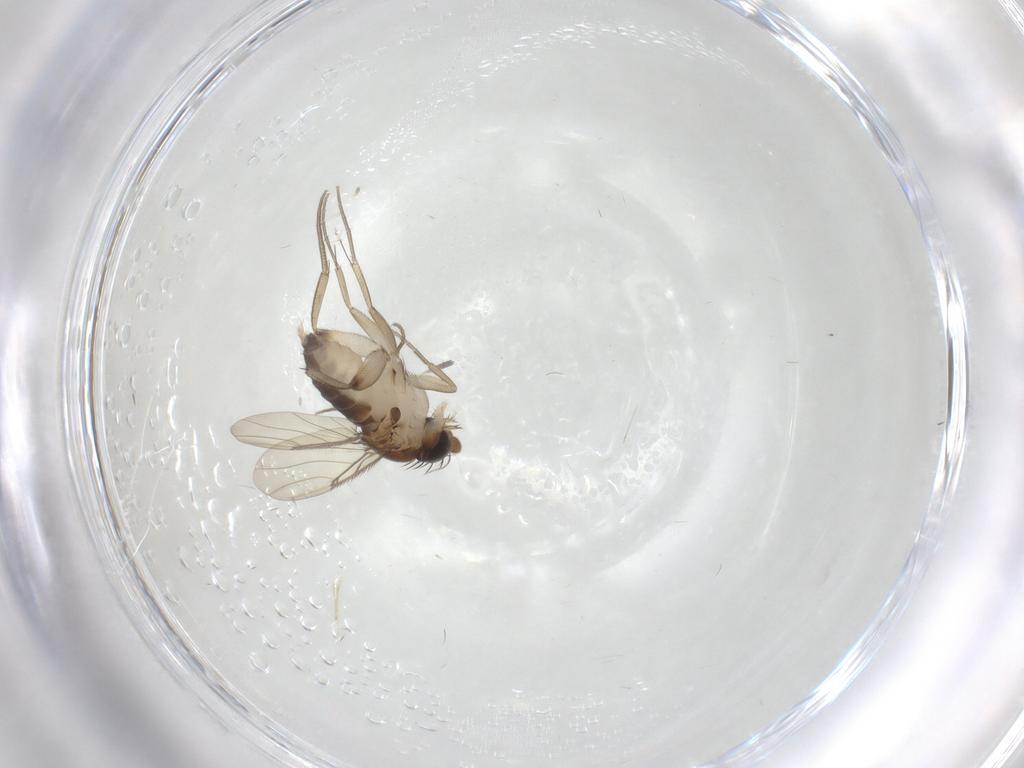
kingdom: Animalia
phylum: Arthropoda
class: Insecta
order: Diptera
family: Phoridae
